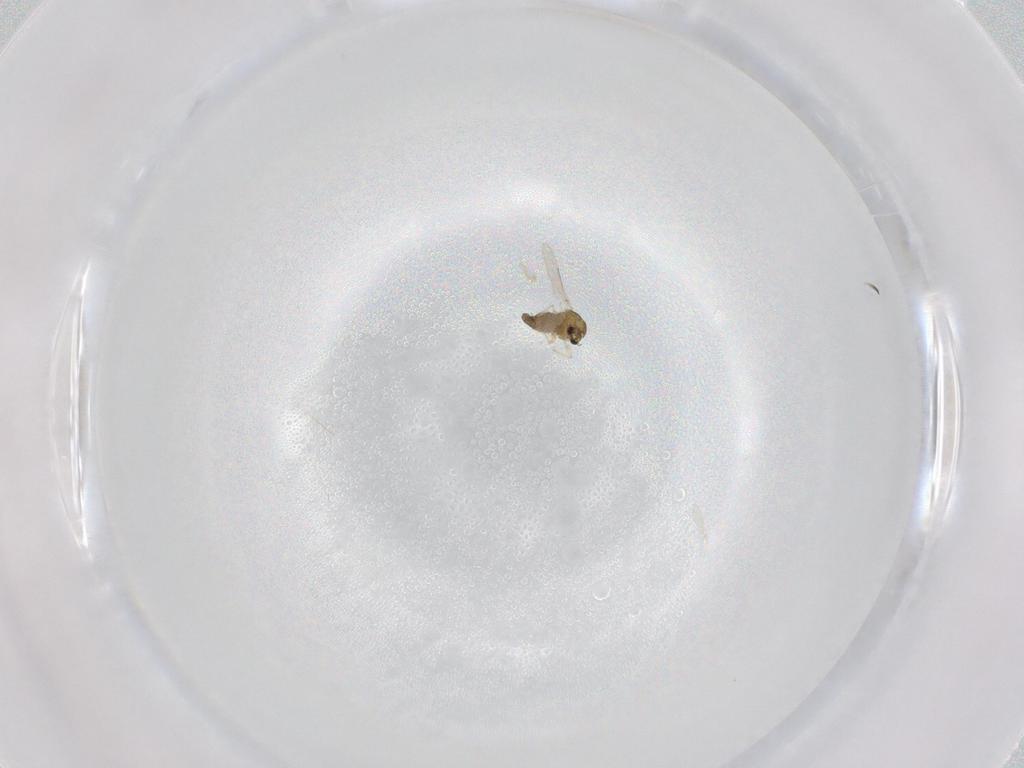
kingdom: Animalia
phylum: Arthropoda
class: Insecta
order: Diptera
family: Chironomidae
